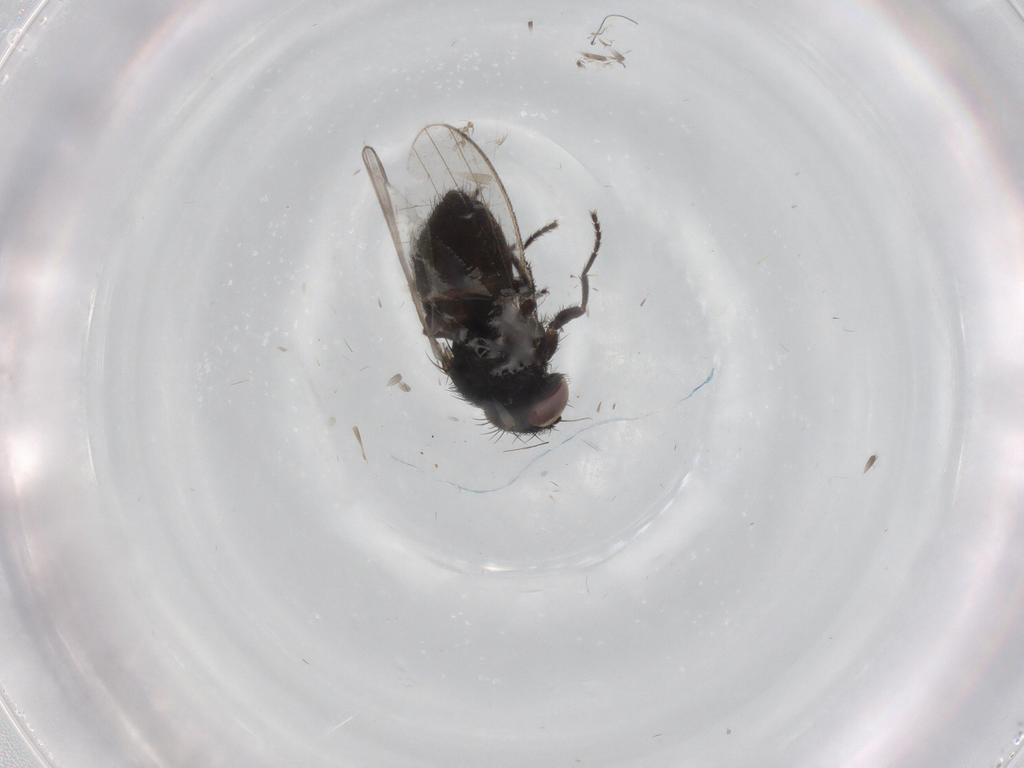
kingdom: Animalia
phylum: Arthropoda
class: Insecta
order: Diptera
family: Milichiidae
